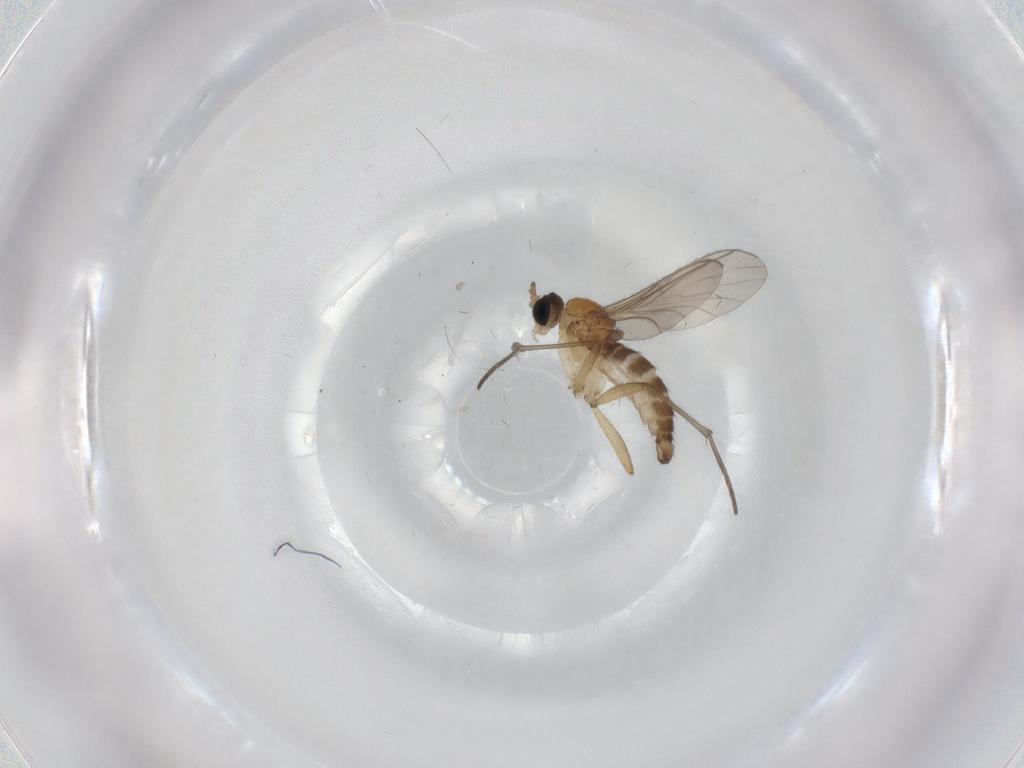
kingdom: Animalia
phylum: Arthropoda
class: Insecta
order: Diptera
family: Sciaridae
